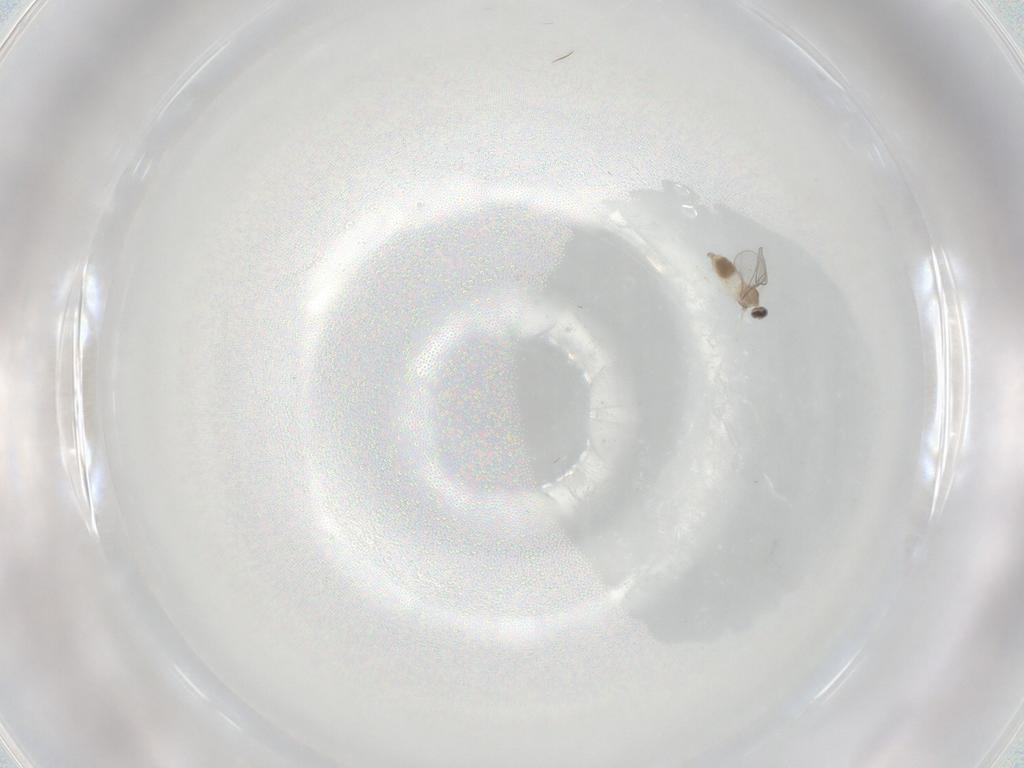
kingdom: Animalia
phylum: Arthropoda
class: Insecta
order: Diptera
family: Cecidomyiidae
